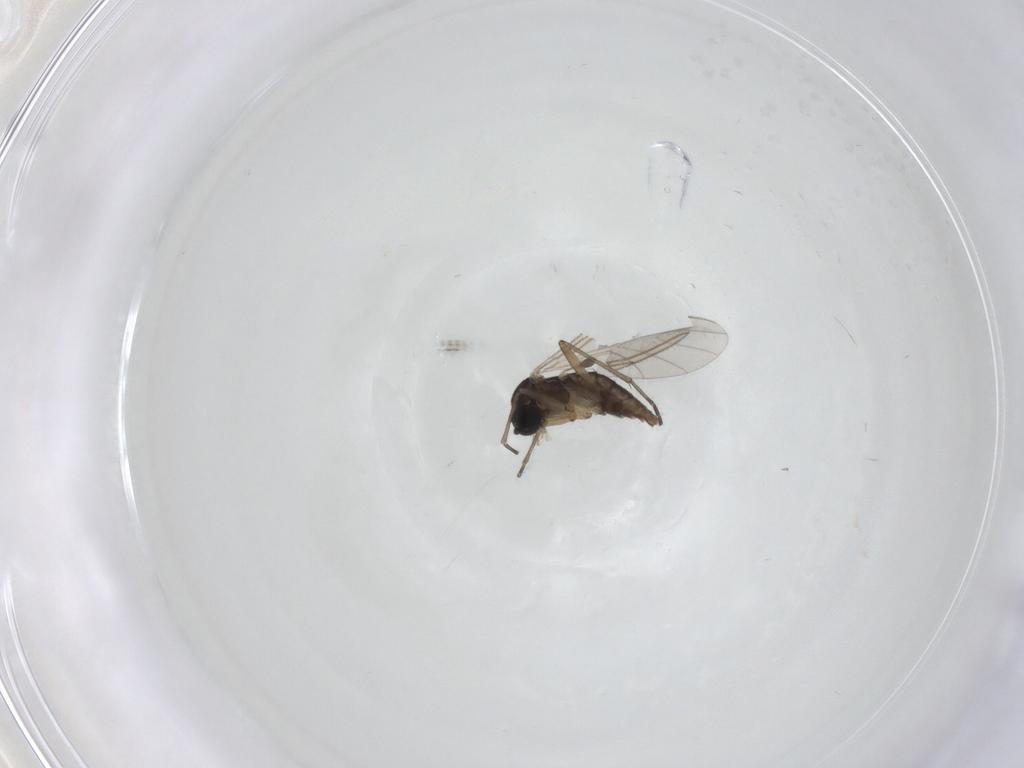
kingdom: Animalia
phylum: Arthropoda
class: Insecta
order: Diptera
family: Sciaridae
